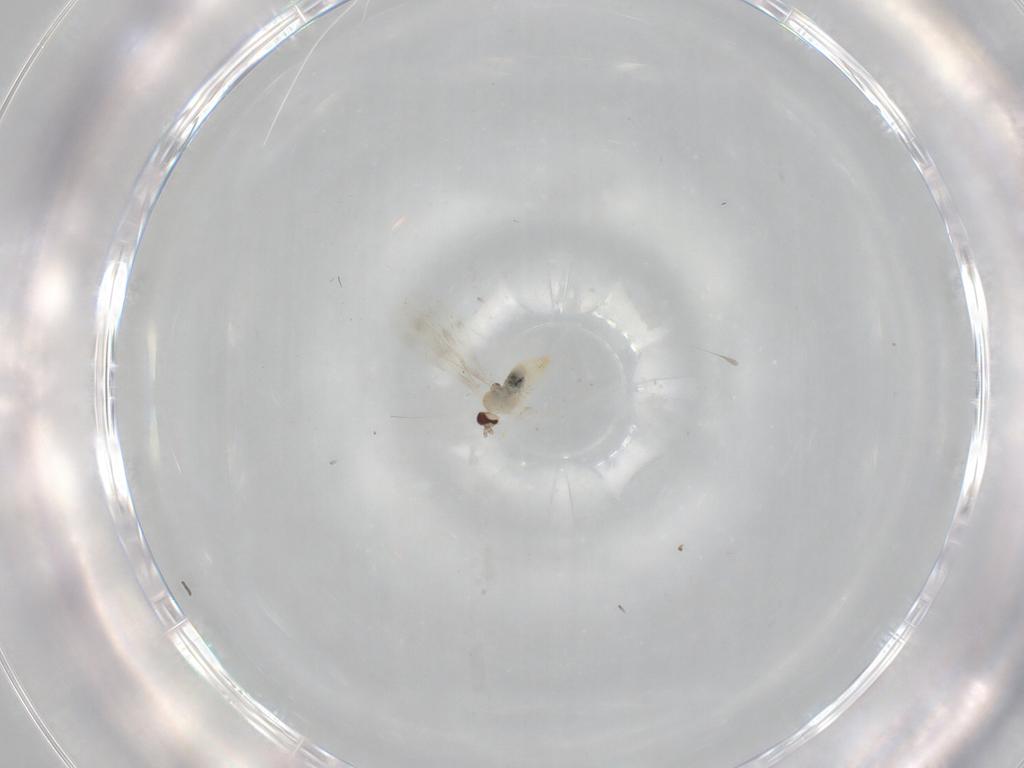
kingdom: Animalia
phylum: Arthropoda
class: Insecta
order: Diptera
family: Cecidomyiidae
